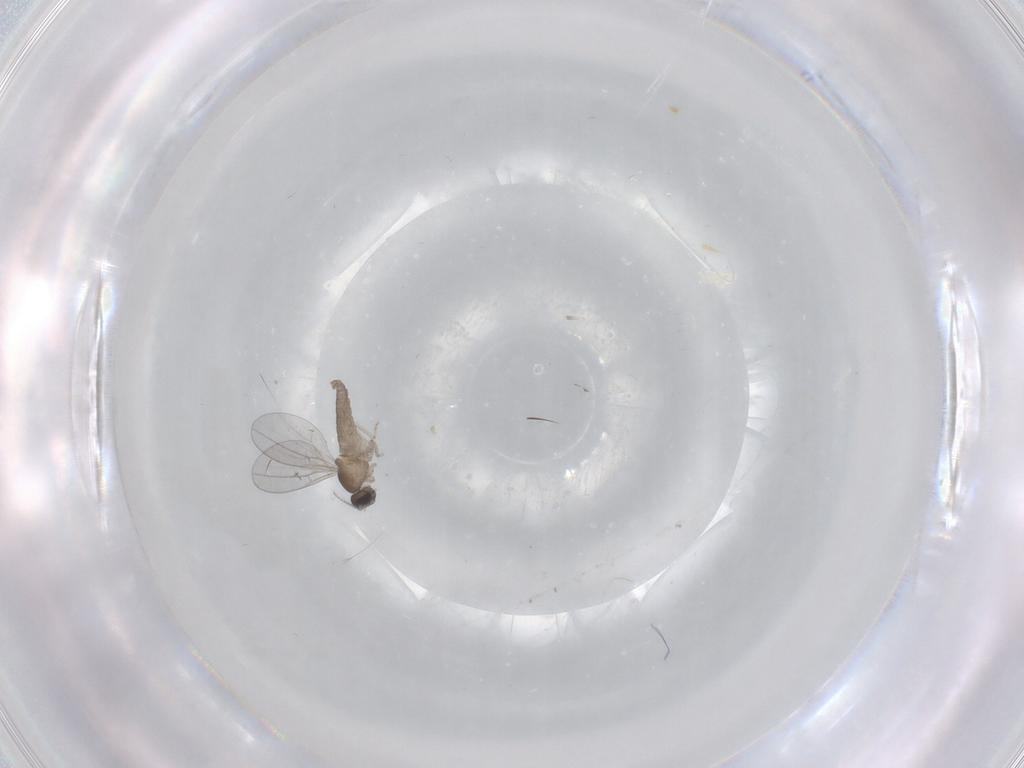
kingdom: Animalia
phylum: Arthropoda
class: Insecta
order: Diptera
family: Cecidomyiidae
